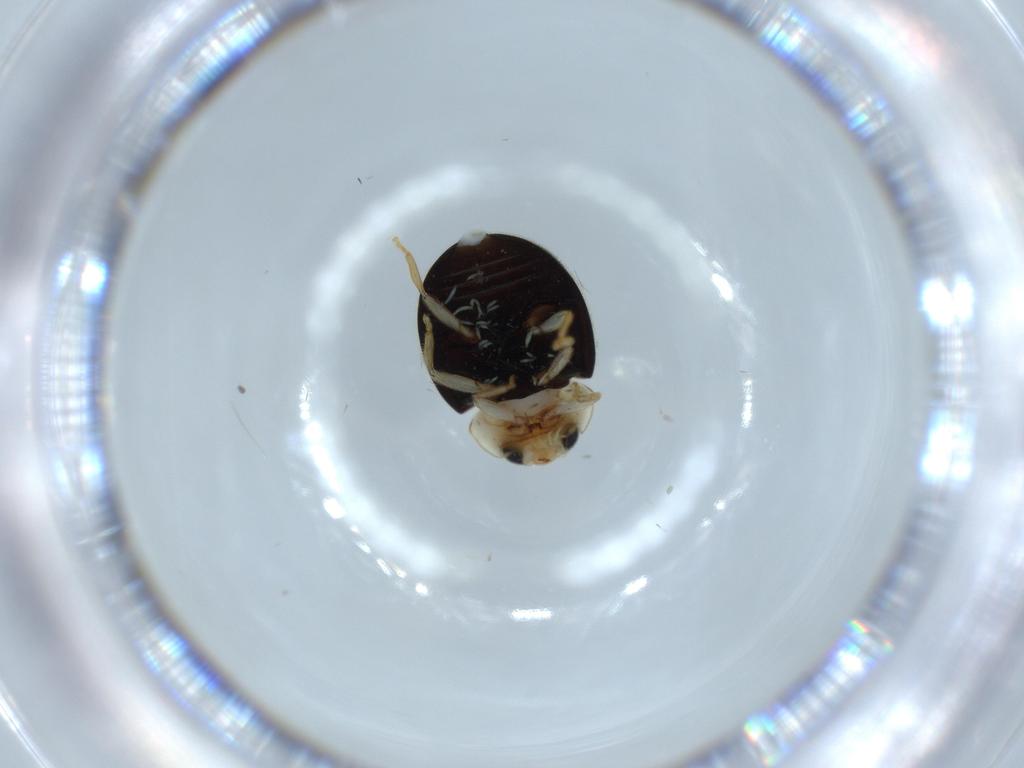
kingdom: Animalia
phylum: Arthropoda
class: Insecta
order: Coleoptera
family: Coccinellidae
